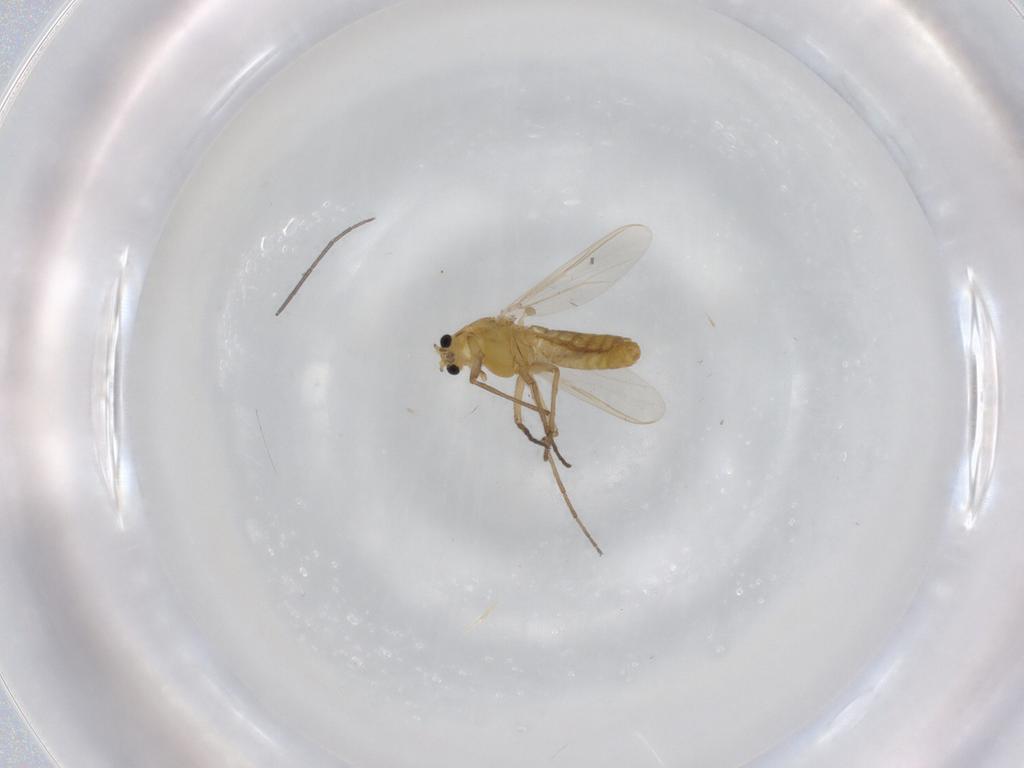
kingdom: Animalia
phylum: Arthropoda
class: Insecta
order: Diptera
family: Chironomidae
